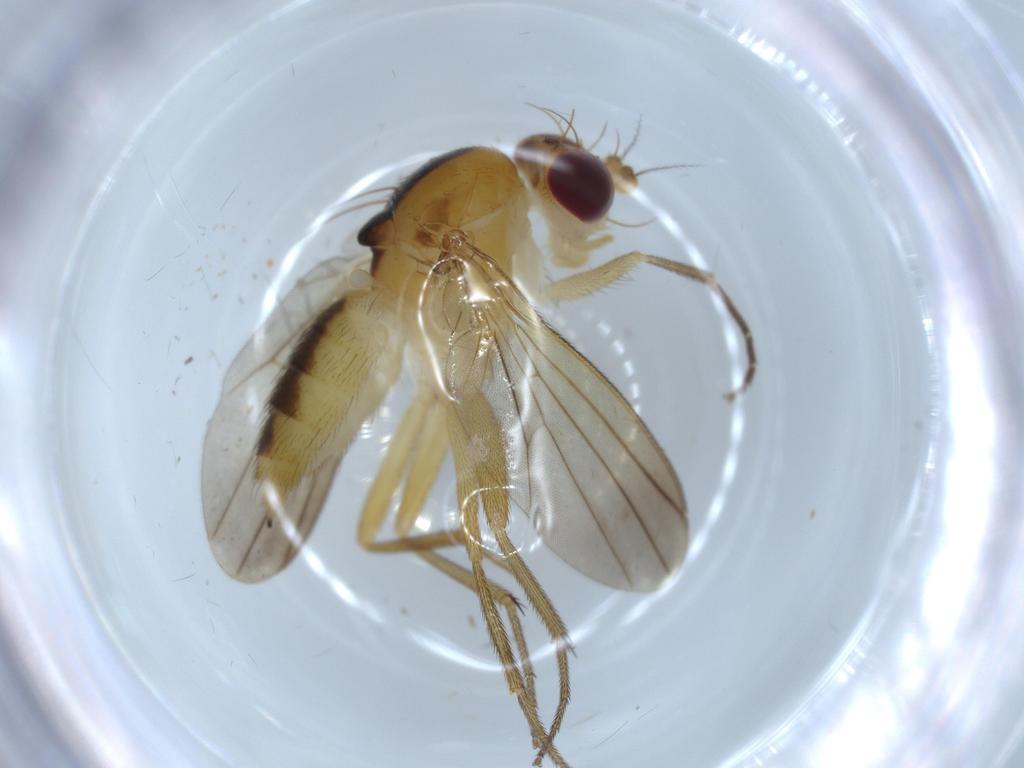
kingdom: Animalia
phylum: Arthropoda
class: Insecta
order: Diptera
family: Clusiidae
